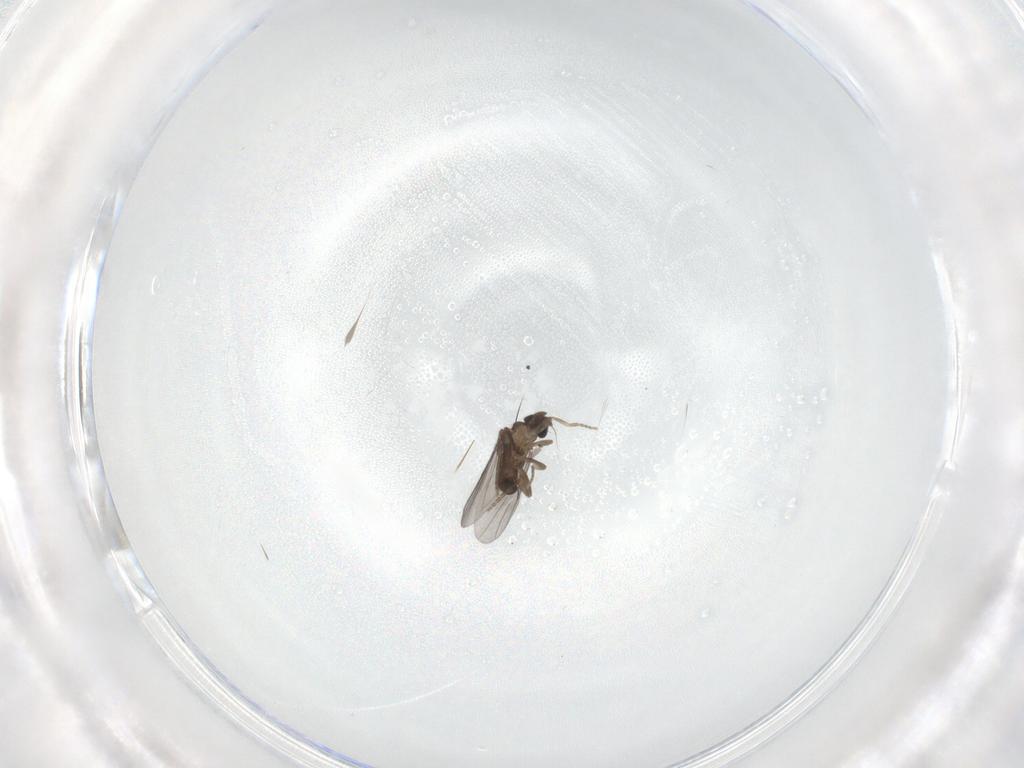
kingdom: Animalia
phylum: Arthropoda
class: Insecta
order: Diptera
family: Phoridae
